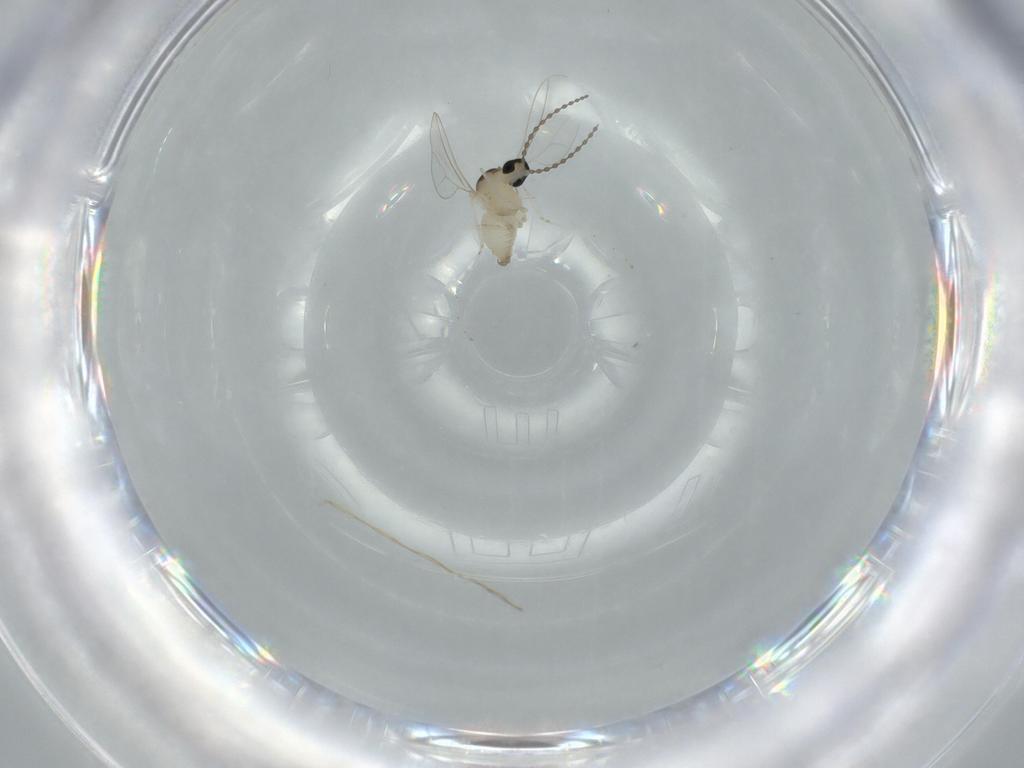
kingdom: Animalia
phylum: Arthropoda
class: Insecta
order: Diptera
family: Cecidomyiidae
